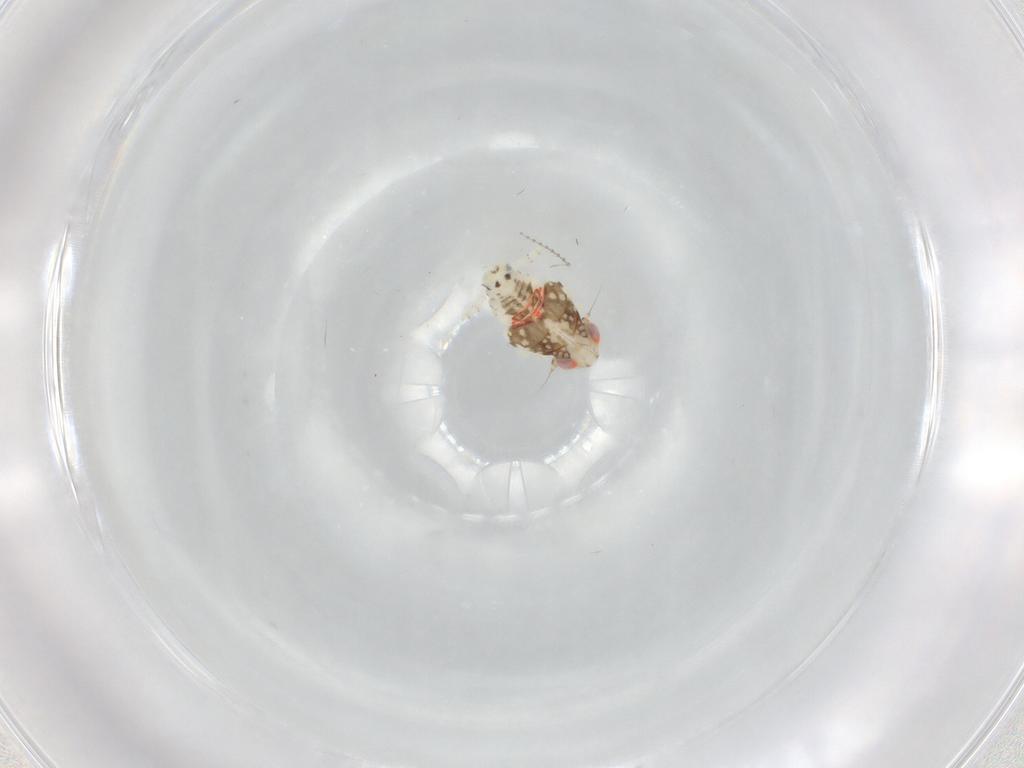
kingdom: Animalia
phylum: Arthropoda
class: Insecta
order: Hemiptera
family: Nogodinidae
